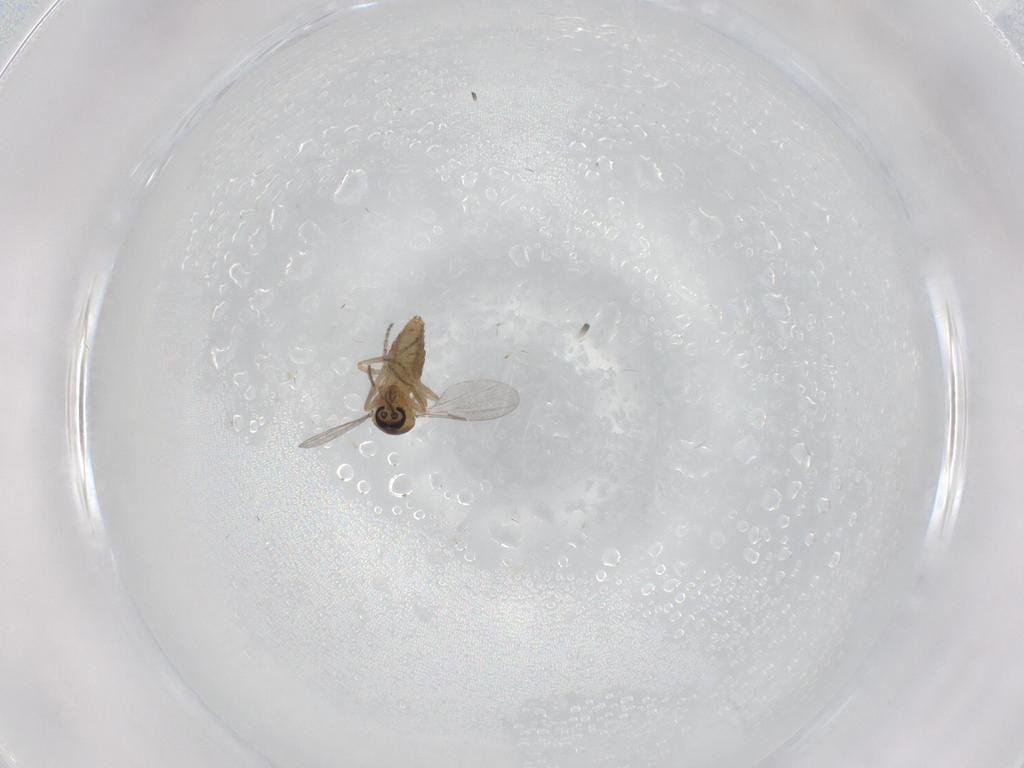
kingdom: Animalia
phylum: Arthropoda
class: Insecta
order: Diptera
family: Ceratopogonidae
